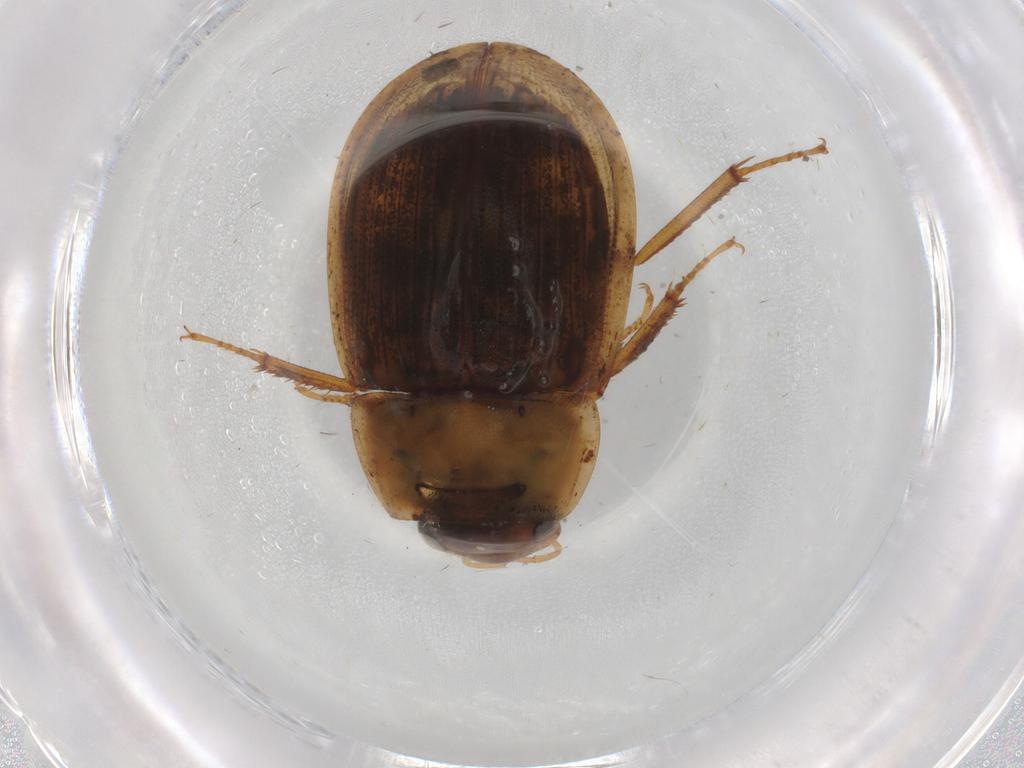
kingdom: Animalia
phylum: Arthropoda
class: Insecta
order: Coleoptera
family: Hydrophilidae
